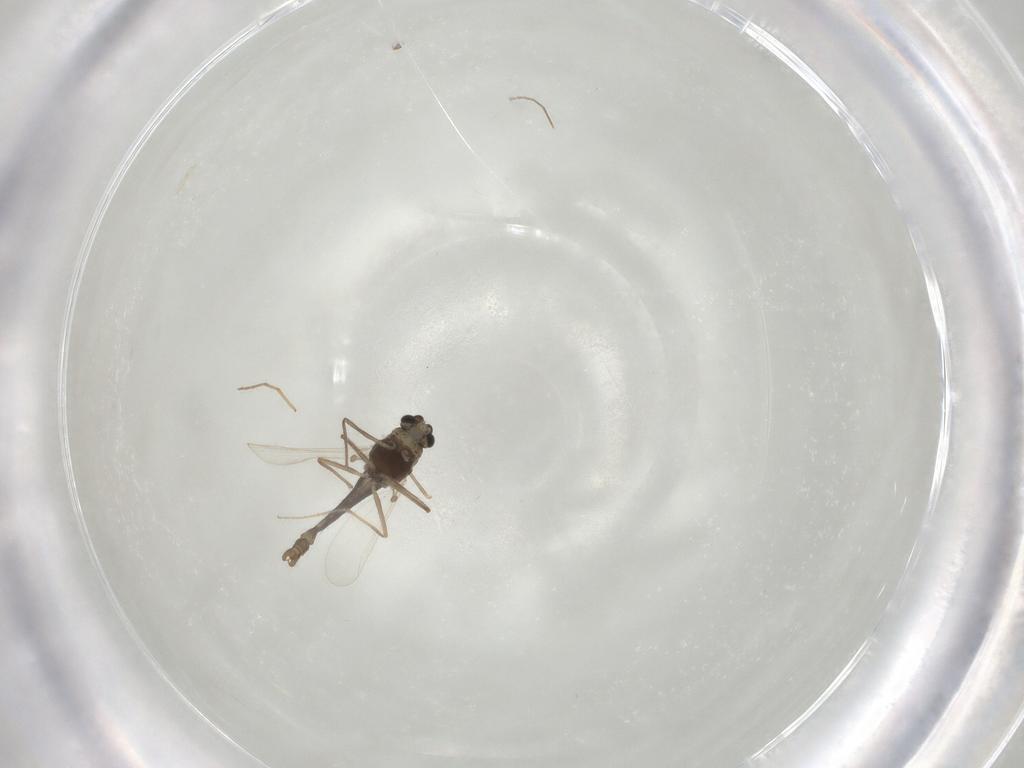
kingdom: Animalia
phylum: Arthropoda
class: Insecta
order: Diptera
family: Chironomidae
